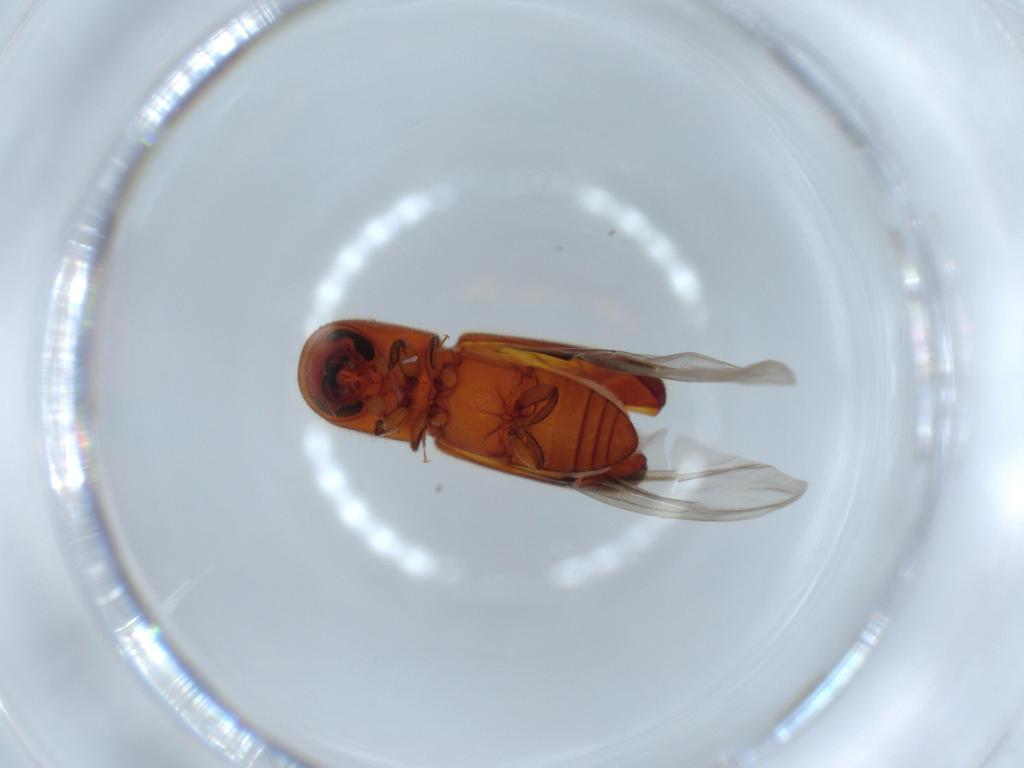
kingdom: Animalia
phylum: Arthropoda
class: Insecta
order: Coleoptera
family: Curculionidae
